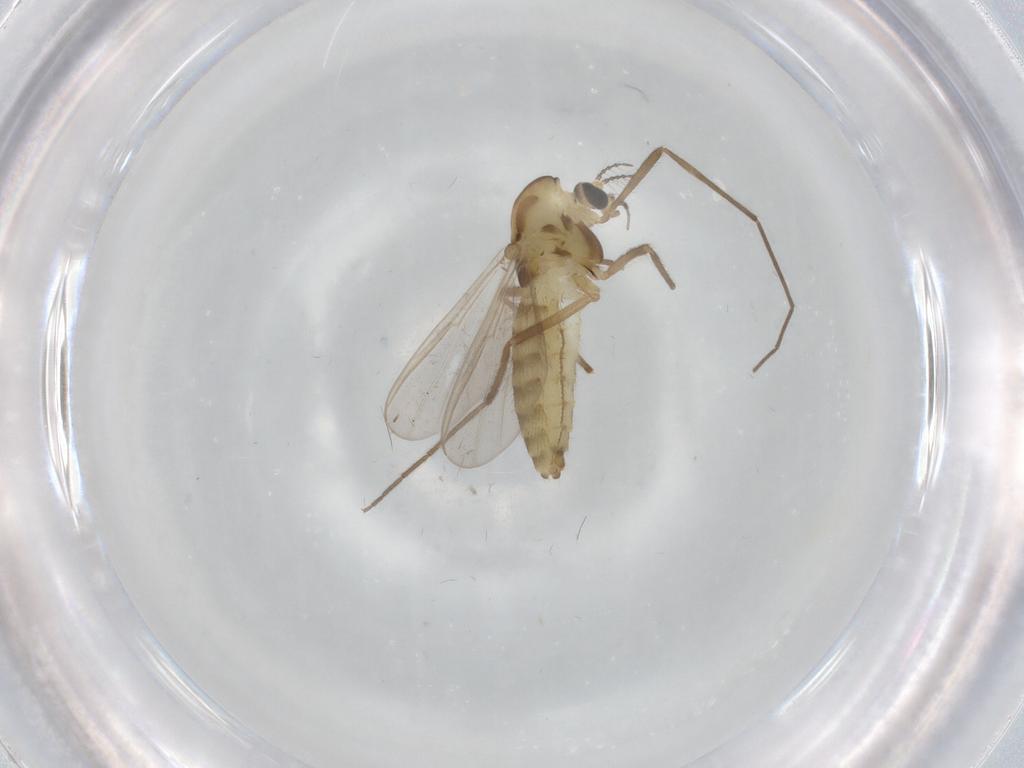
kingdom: Animalia
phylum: Arthropoda
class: Insecta
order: Diptera
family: Chironomidae
